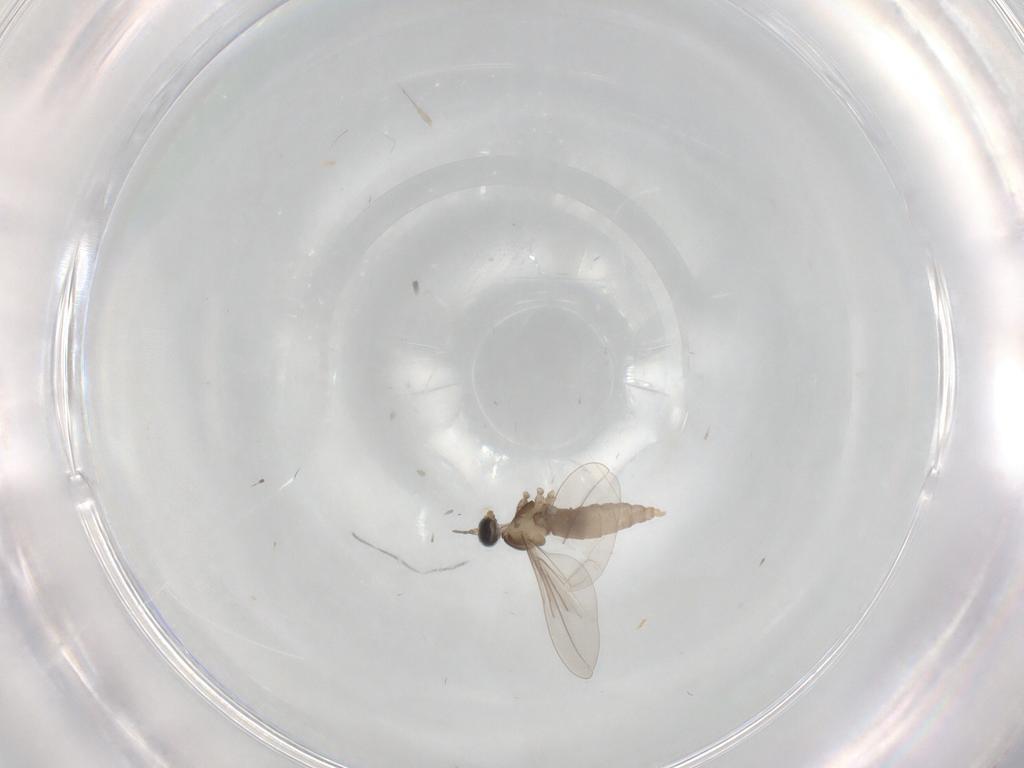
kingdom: Animalia
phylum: Arthropoda
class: Insecta
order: Diptera
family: Cecidomyiidae
